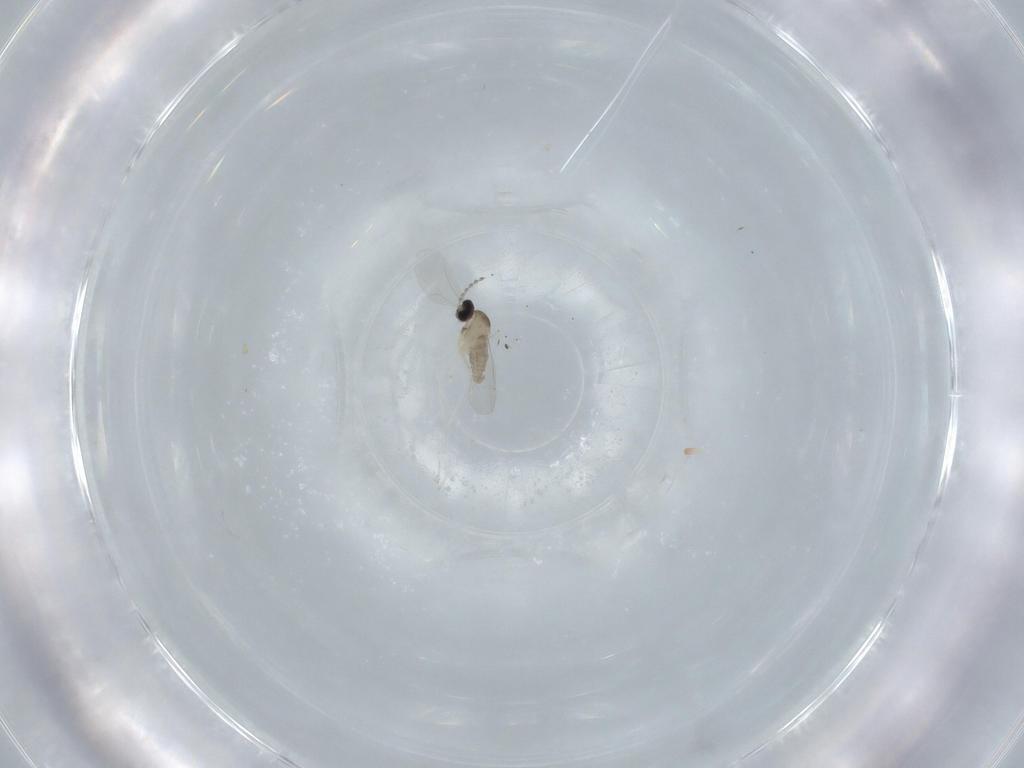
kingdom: Animalia
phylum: Arthropoda
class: Insecta
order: Diptera
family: Cecidomyiidae
